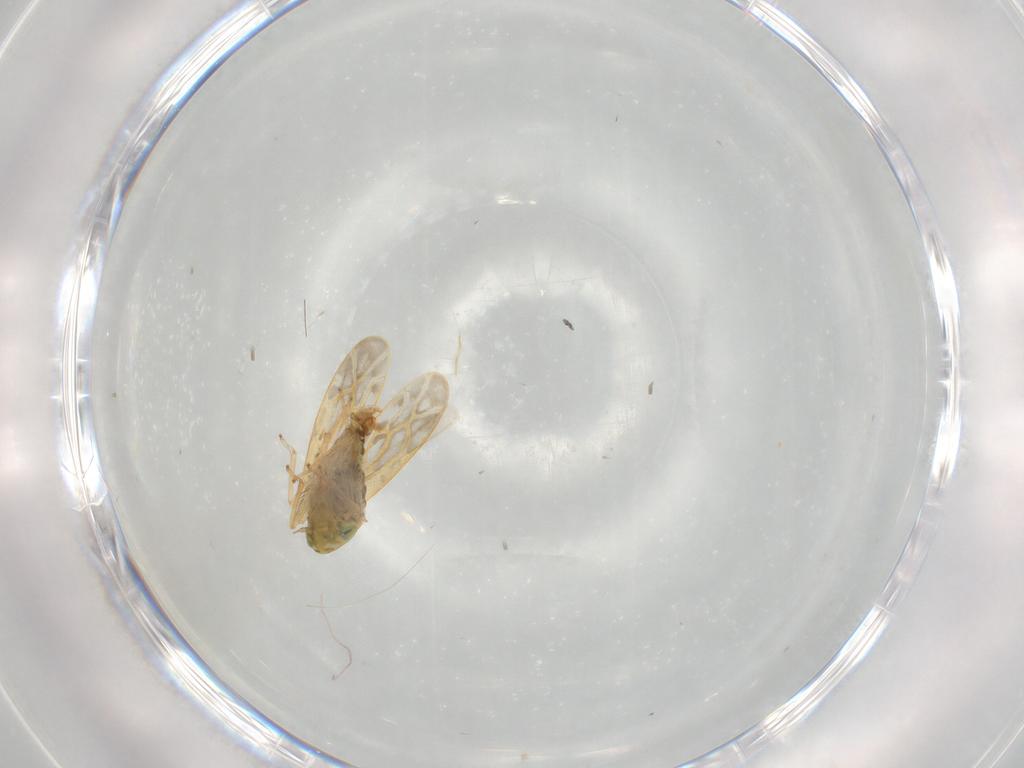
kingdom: Animalia
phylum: Arthropoda
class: Insecta
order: Hemiptera
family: Cicadellidae
